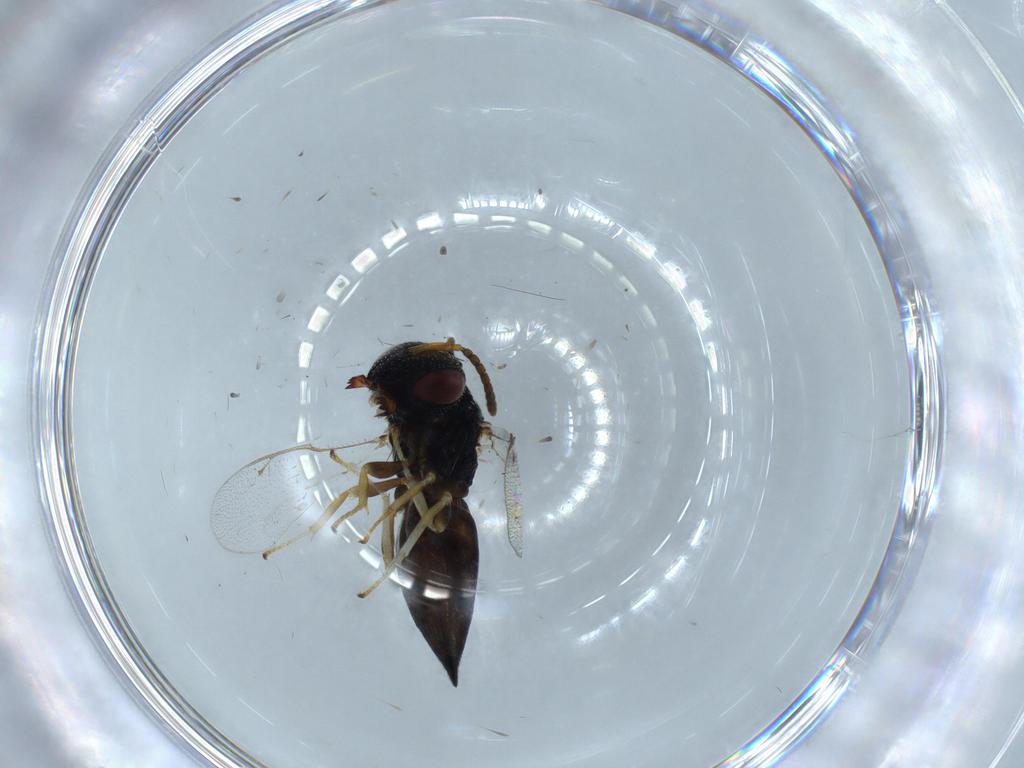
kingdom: Animalia
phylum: Arthropoda
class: Insecta
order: Hymenoptera
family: Pteromalidae
